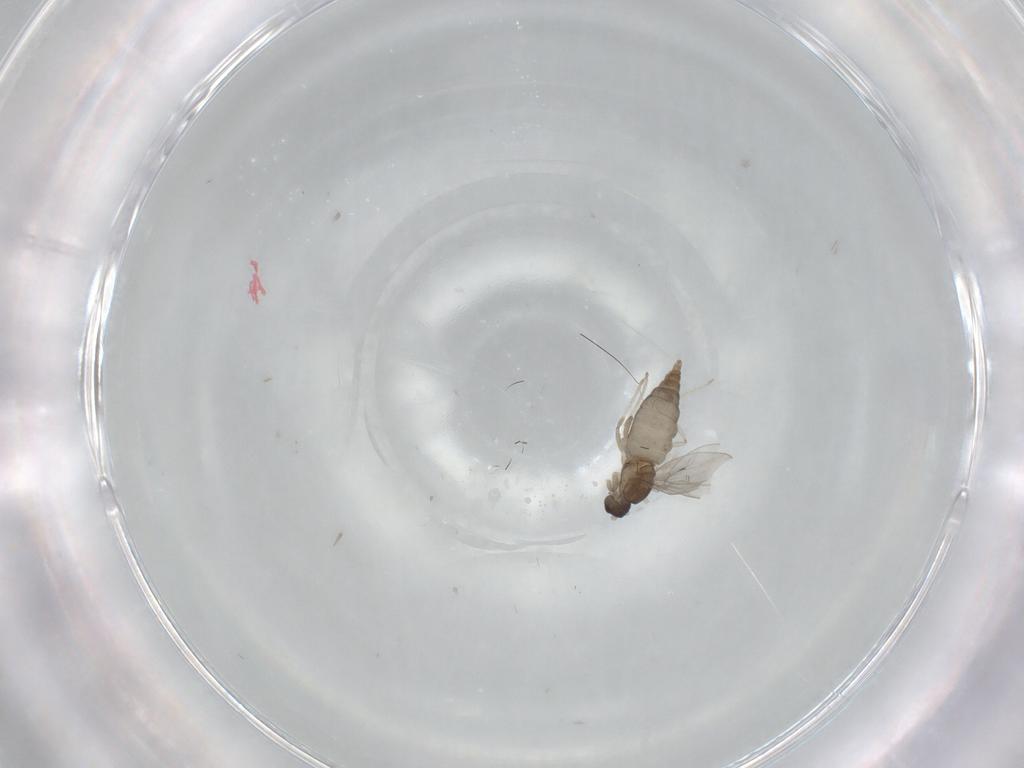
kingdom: Animalia
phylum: Arthropoda
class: Insecta
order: Diptera
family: Cecidomyiidae
